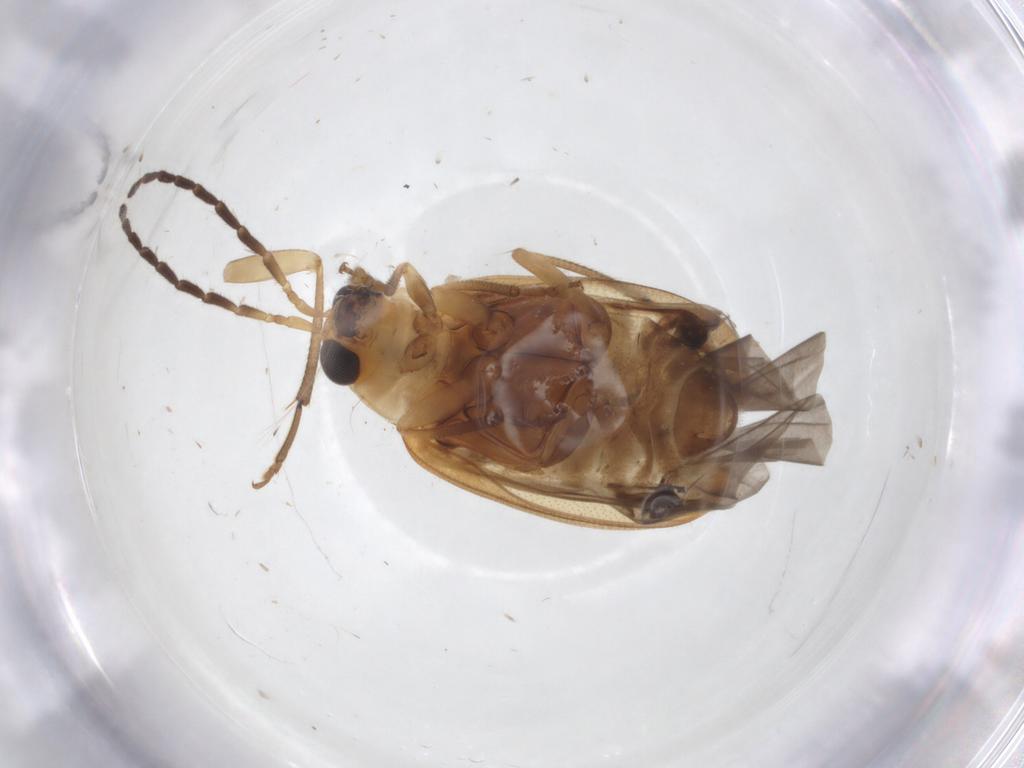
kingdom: Animalia
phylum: Arthropoda
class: Insecta
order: Coleoptera
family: Chrysomelidae
